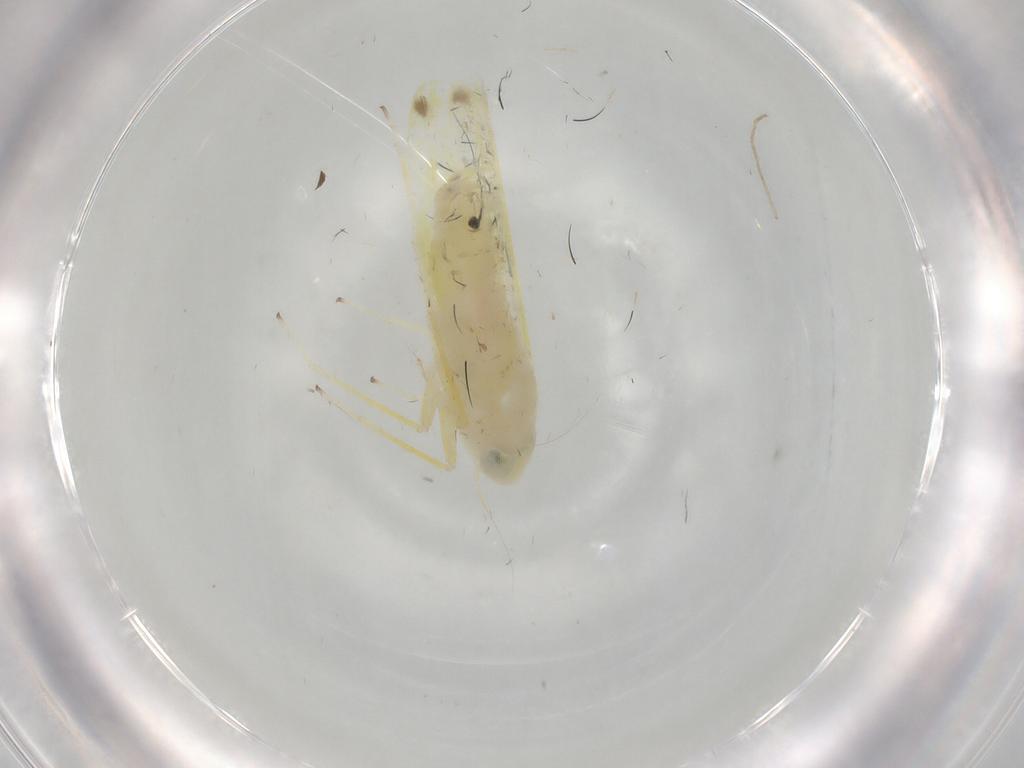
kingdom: Animalia
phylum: Arthropoda
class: Insecta
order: Hemiptera
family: Cicadellidae
